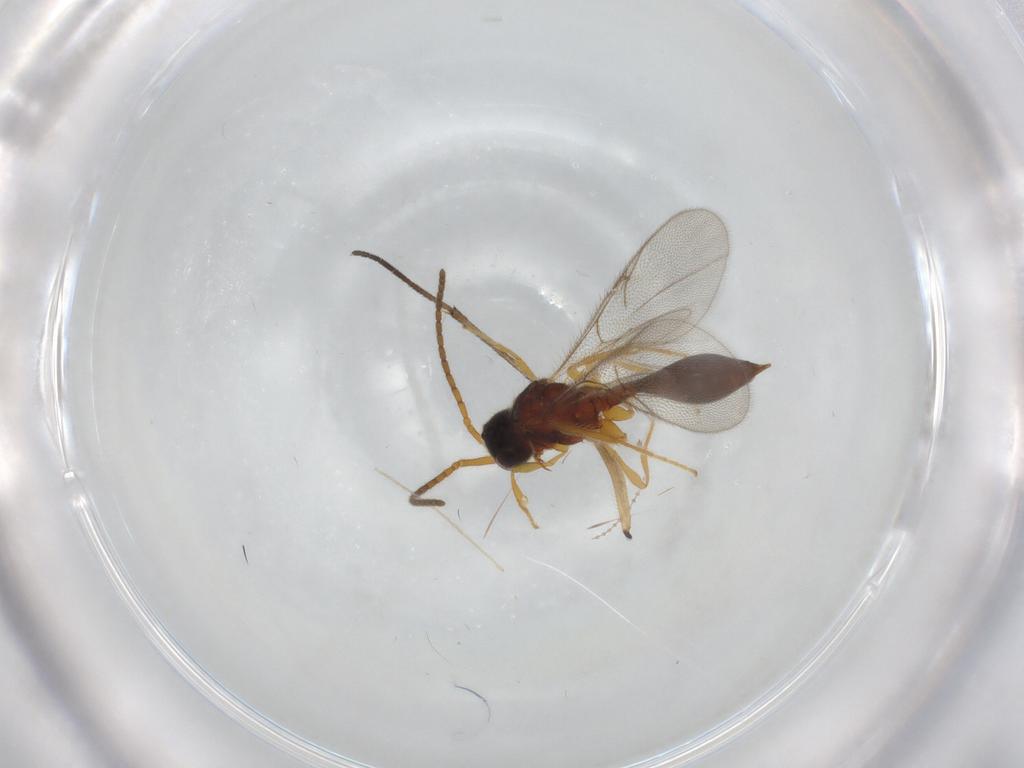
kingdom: Animalia
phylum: Arthropoda
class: Insecta
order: Hymenoptera
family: Diapriidae
